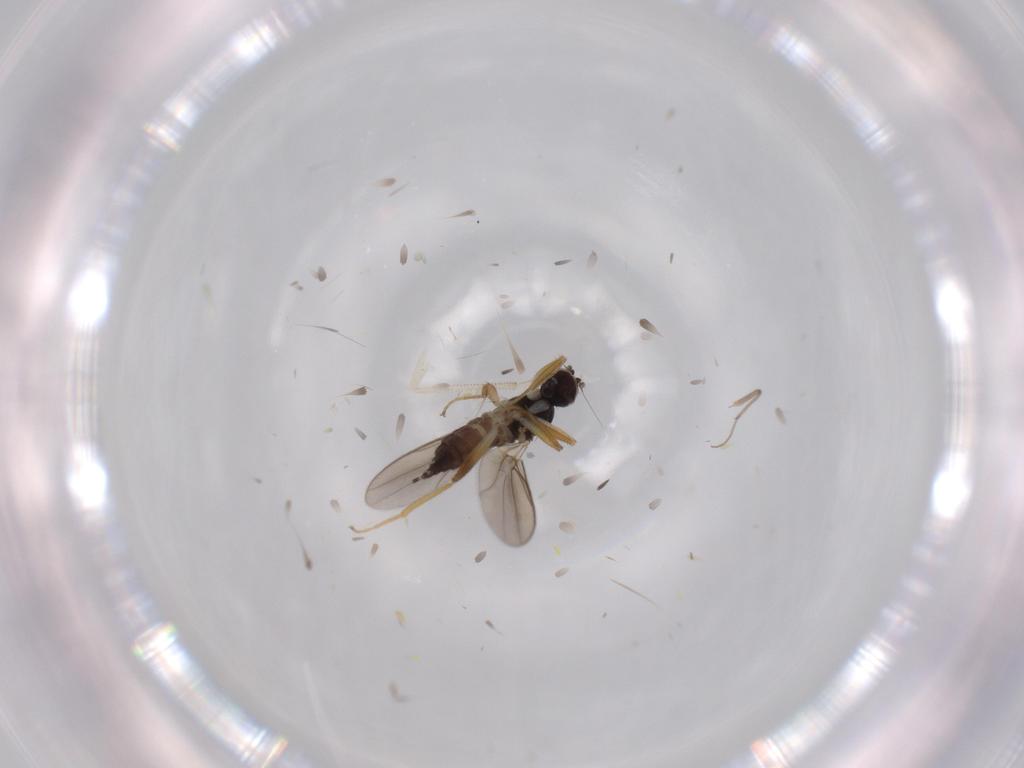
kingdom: Animalia
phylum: Arthropoda
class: Insecta
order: Diptera
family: Hybotidae
